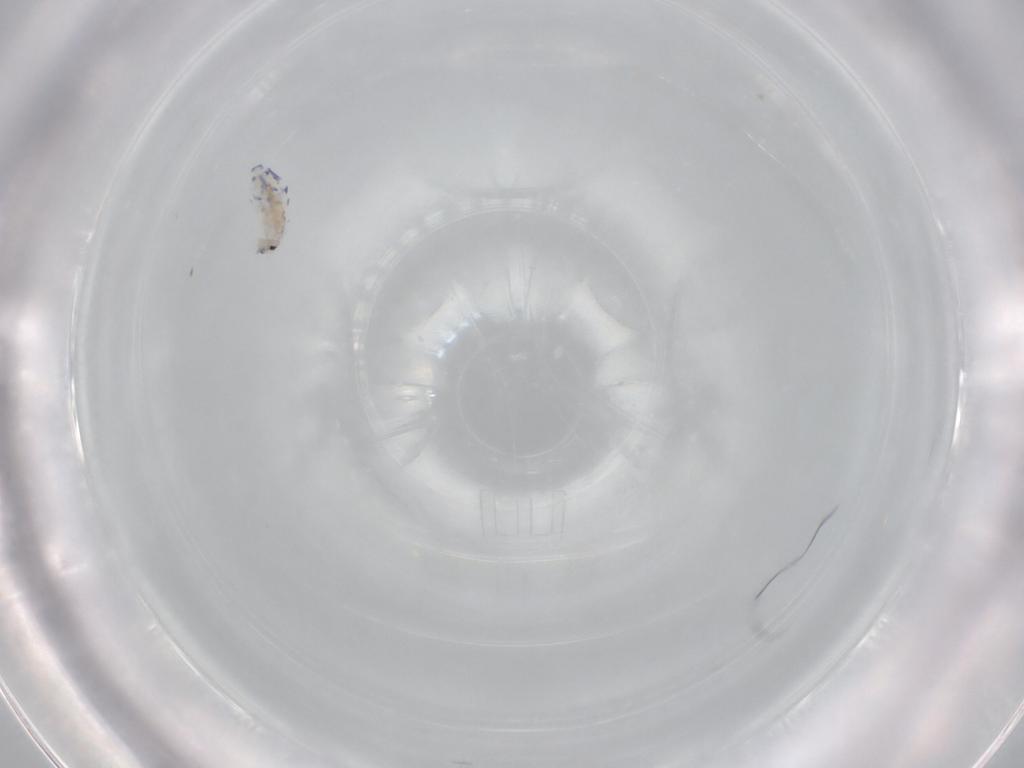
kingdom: Animalia
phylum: Arthropoda
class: Collembola
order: Entomobryomorpha
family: Entomobryidae
